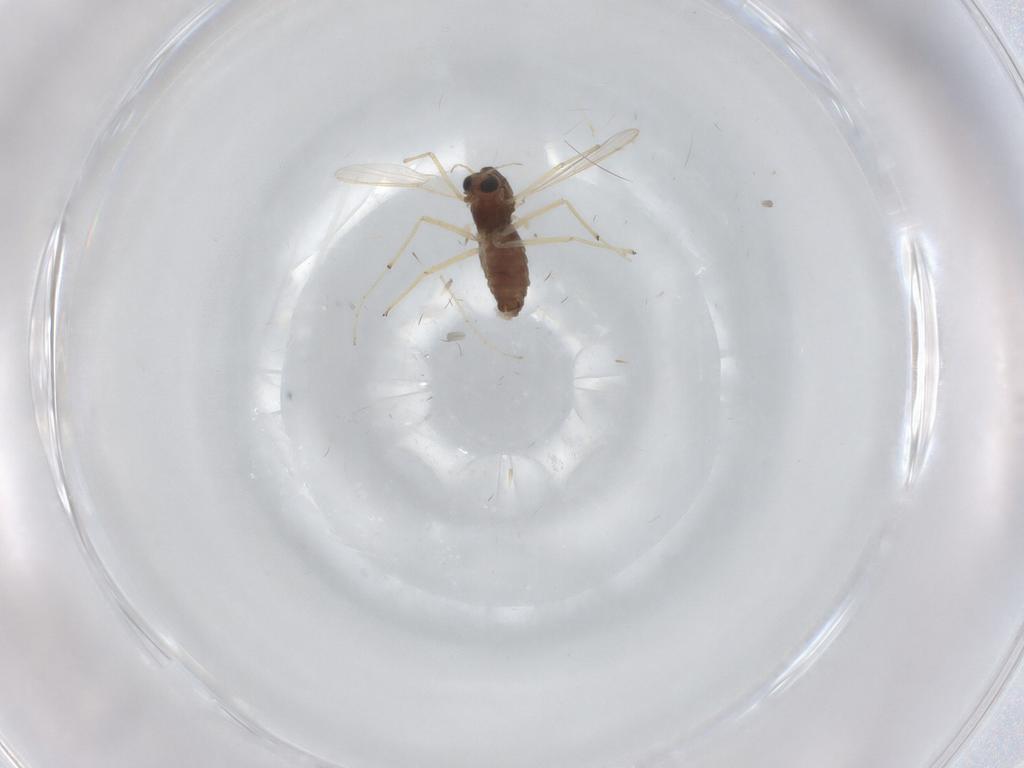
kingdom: Animalia
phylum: Arthropoda
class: Insecta
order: Diptera
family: Chironomidae
